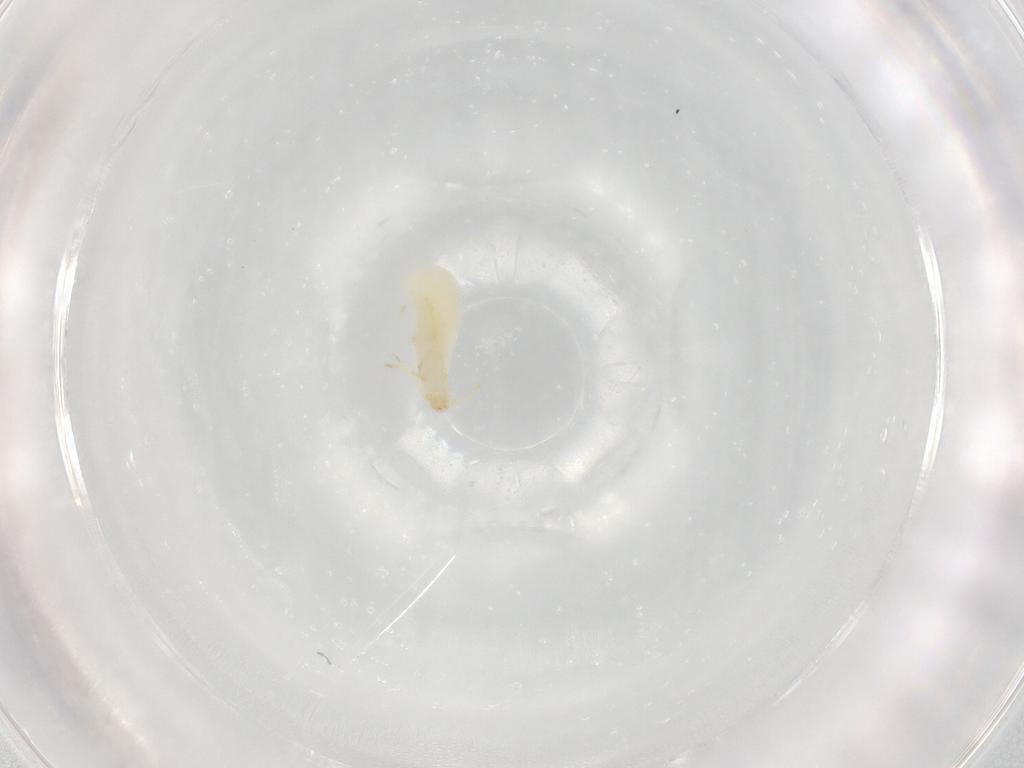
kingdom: Animalia
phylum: Arthropoda
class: Arachnida
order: Trombidiformes
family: Erythraeidae
